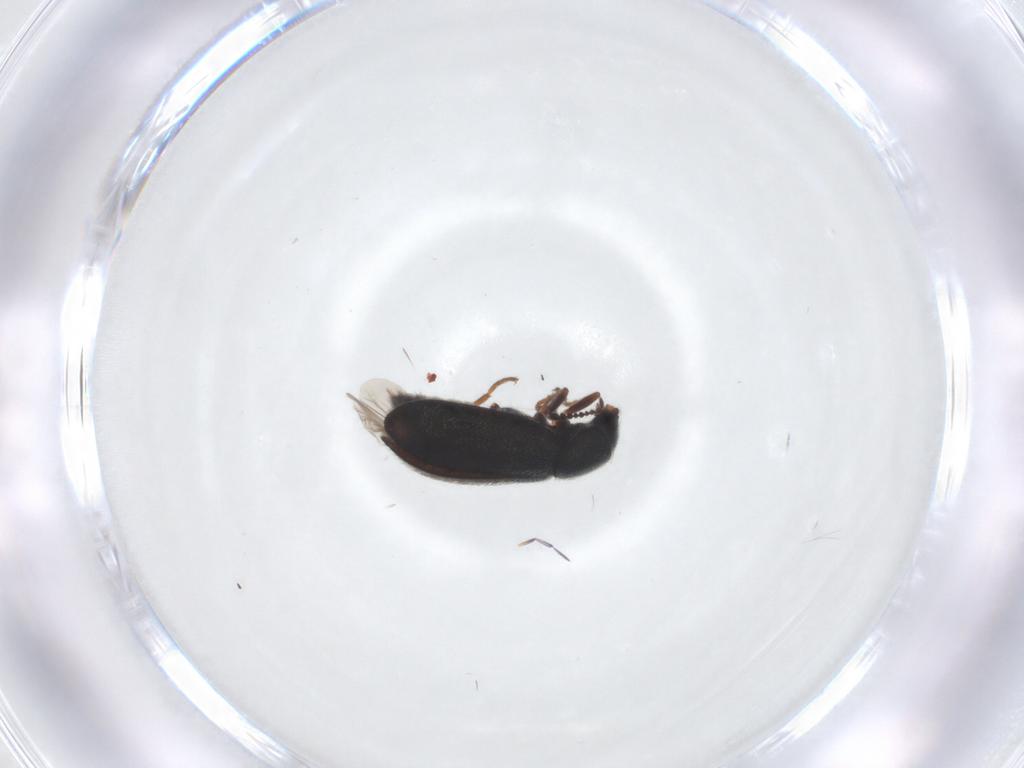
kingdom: Animalia
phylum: Arthropoda
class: Insecta
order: Coleoptera
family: Melyridae
